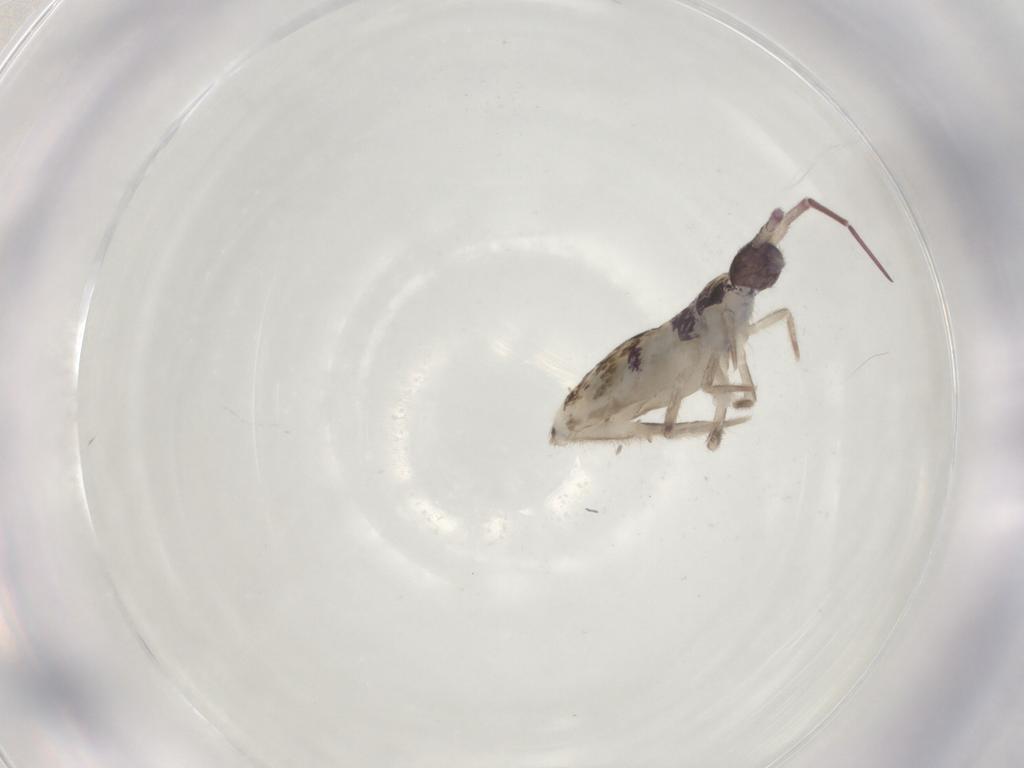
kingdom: Animalia
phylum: Arthropoda
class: Collembola
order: Entomobryomorpha
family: Entomobryidae
